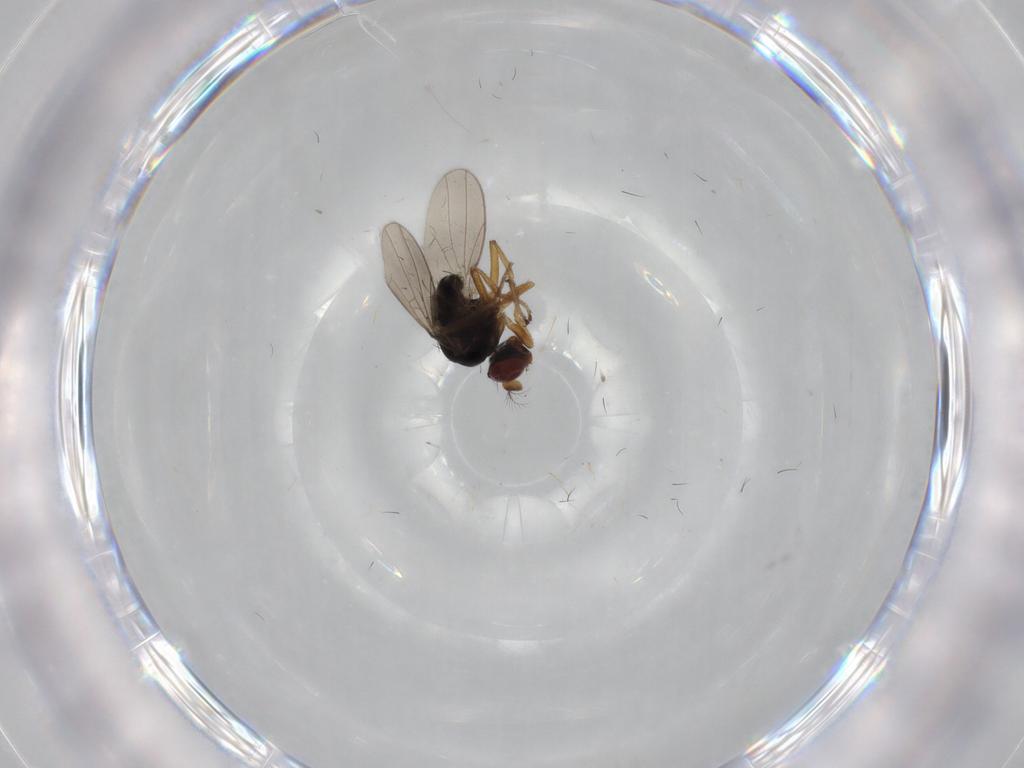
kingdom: Animalia
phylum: Arthropoda
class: Insecta
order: Diptera
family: Ephydridae
